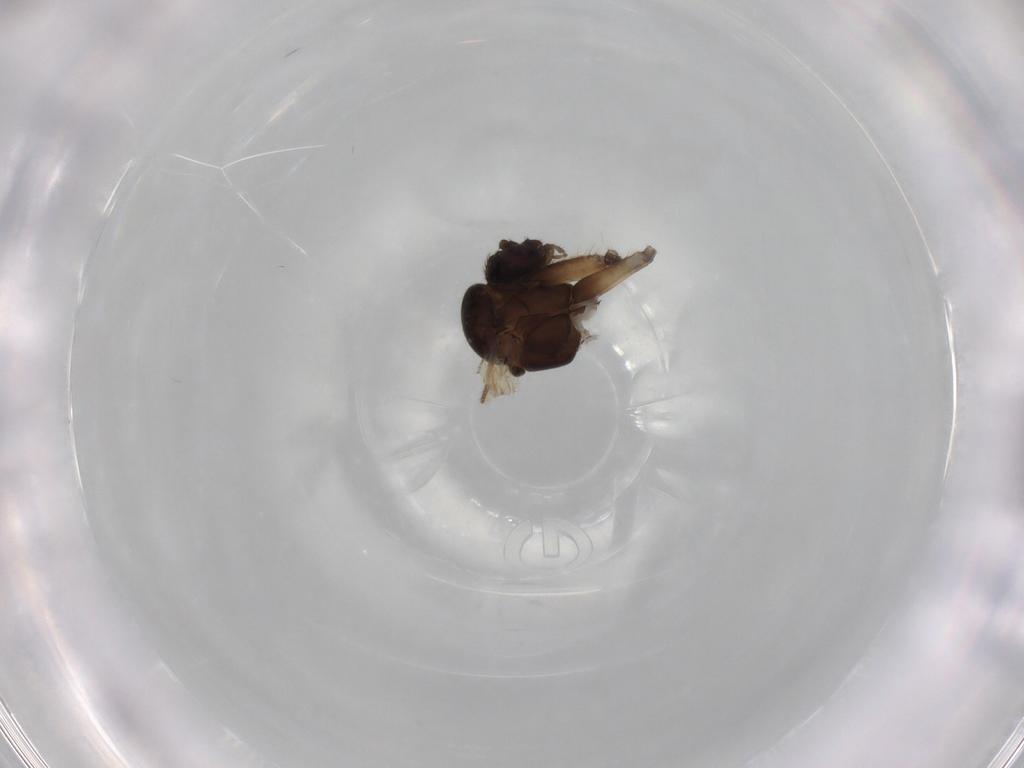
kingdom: Animalia
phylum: Arthropoda
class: Insecta
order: Diptera
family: Sepsidae
